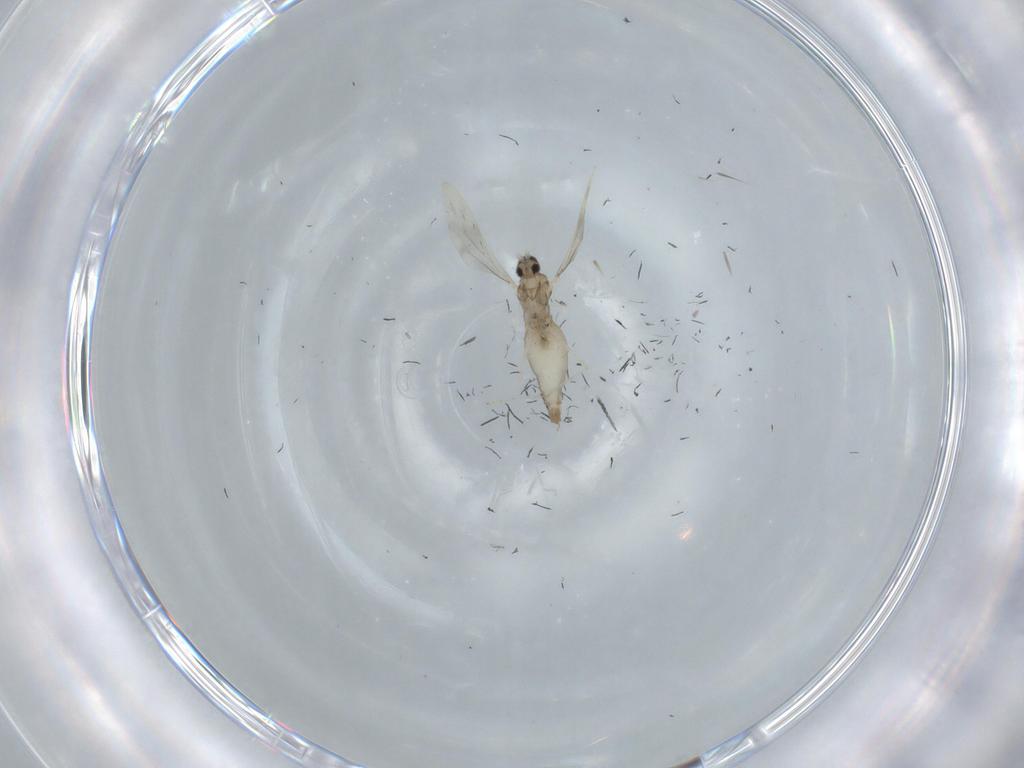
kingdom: Animalia
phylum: Arthropoda
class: Insecta
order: Diptera
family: Cecidomyiidae
